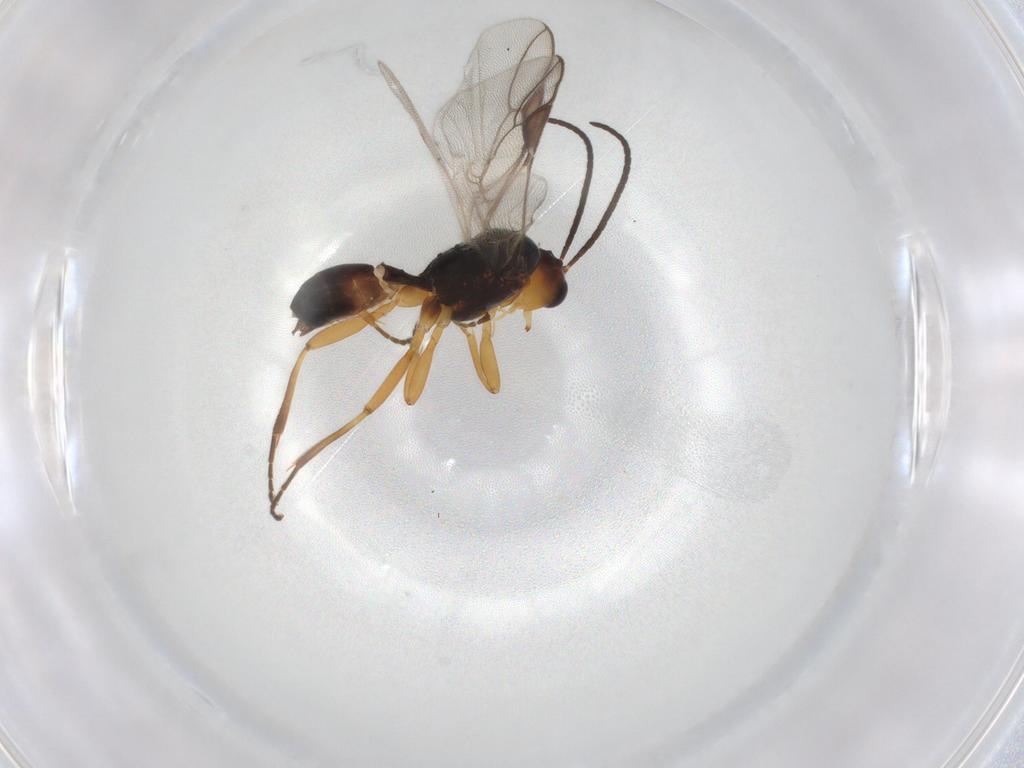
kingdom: Animalia
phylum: Arthropoda
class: Insecta
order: Hymenoptera
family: Braconidae
